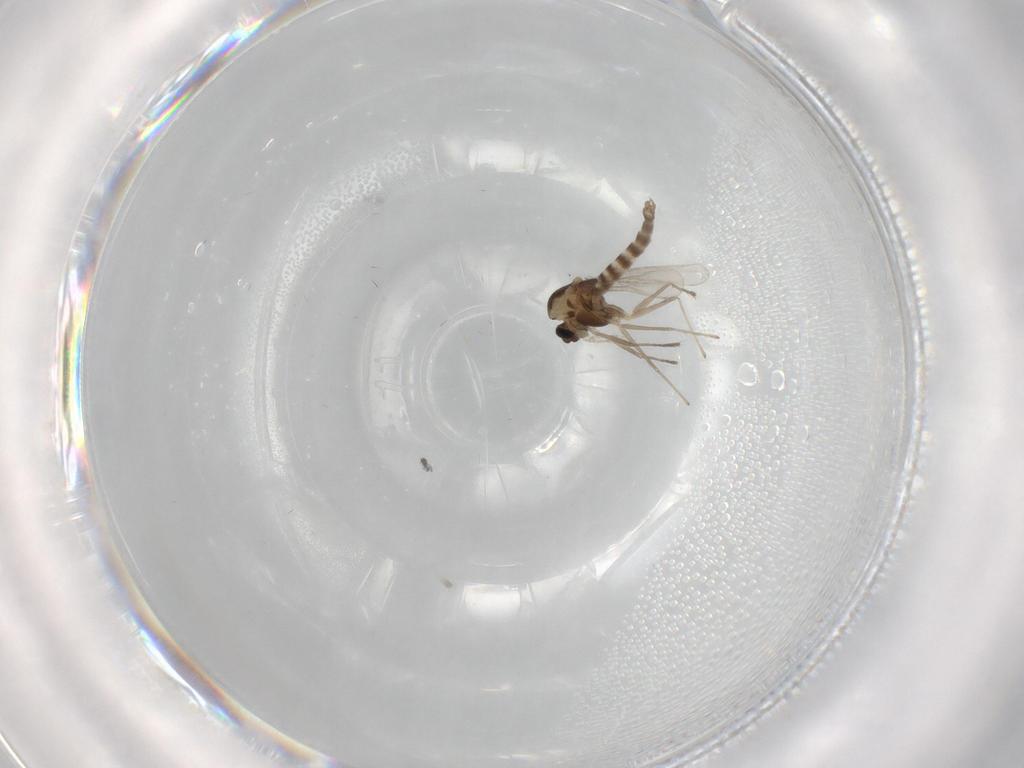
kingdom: Animalia
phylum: Arthropoda
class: Insecta
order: Diptera
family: Chironomidae
